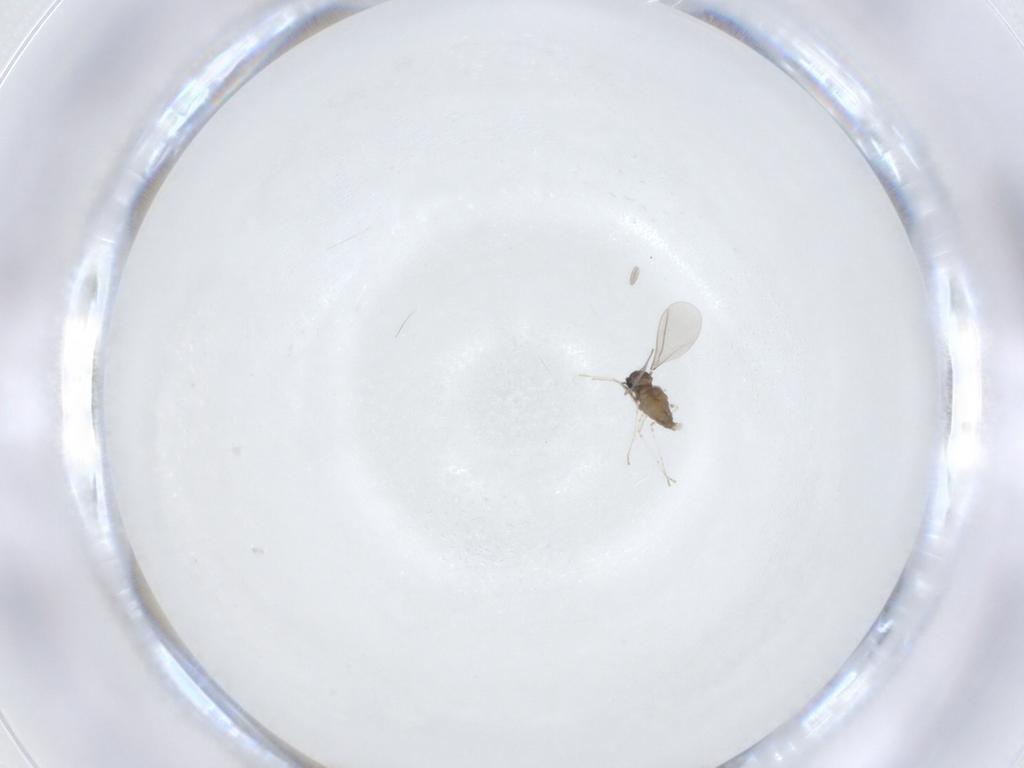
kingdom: Animalia
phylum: Arthropoda
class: Insecta
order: Diptera
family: Cecidomyiidae
